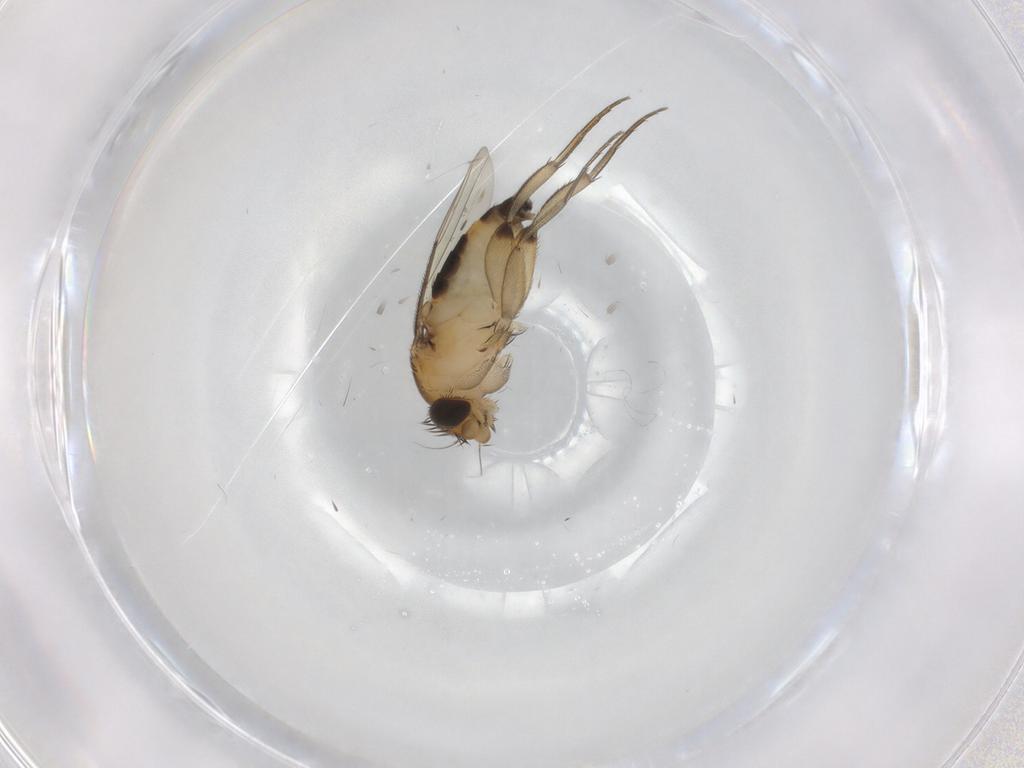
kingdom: Animalia
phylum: Arthropoda
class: Insecta
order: Diptera
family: Phoridae
